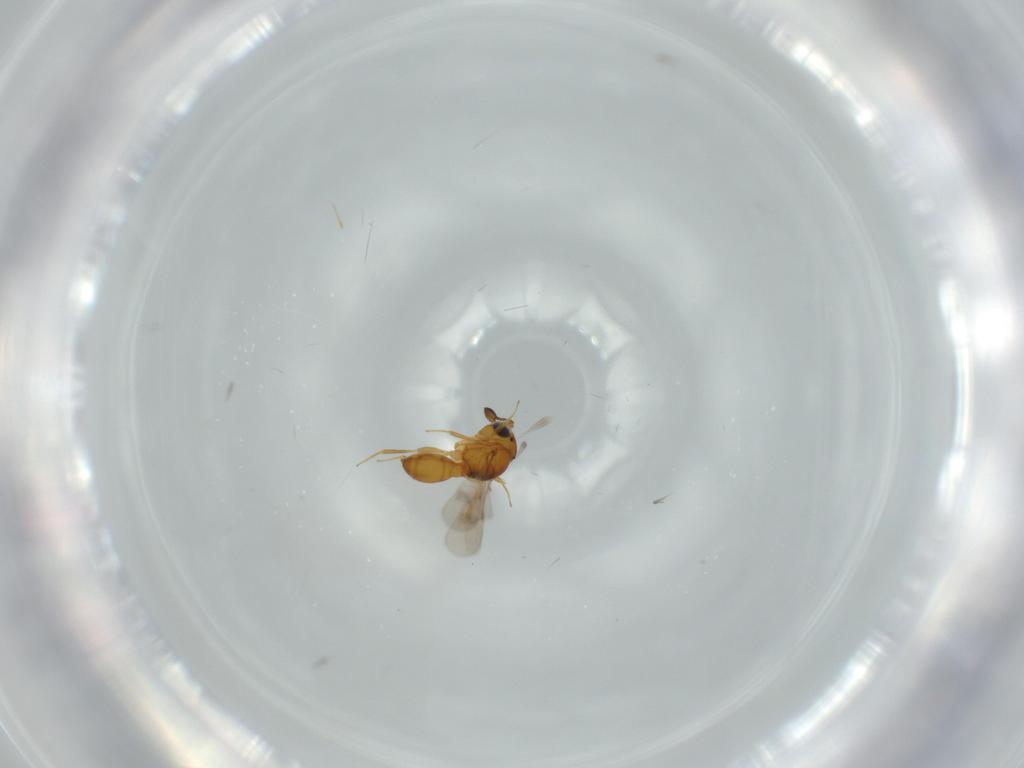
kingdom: Animalia
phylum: Arthropoda
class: Insecta
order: Hymenoptera
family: Scelionidae
